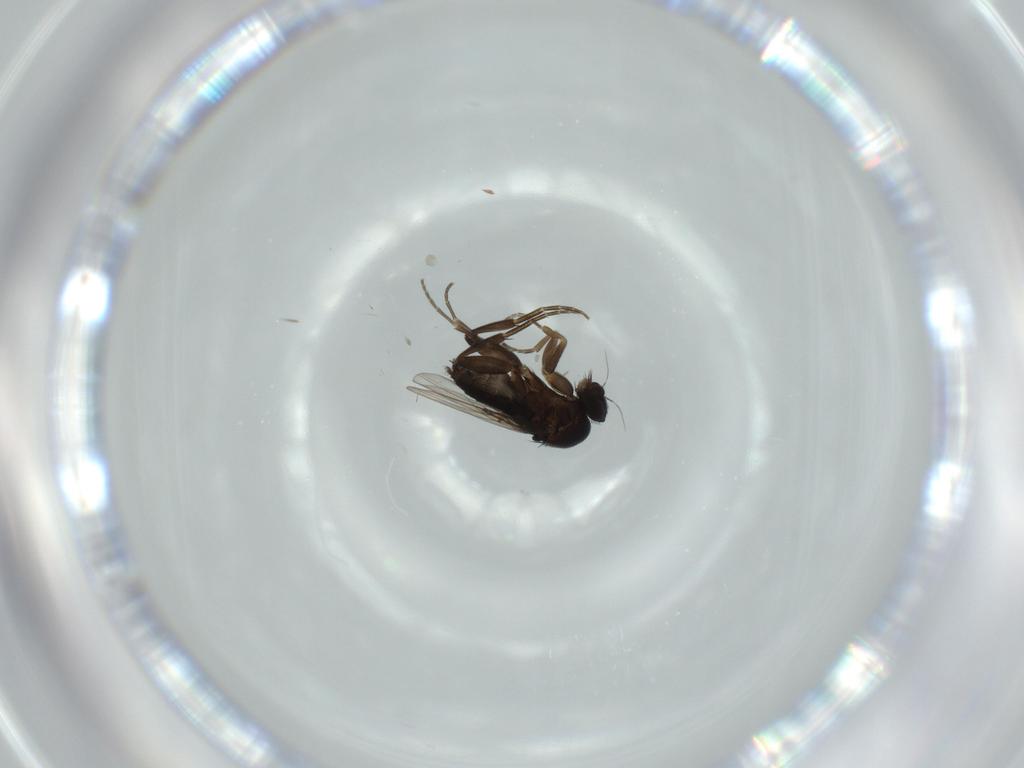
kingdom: Animalia
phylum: Arthropoda
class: Insecta
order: Diptera
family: Phoridae
